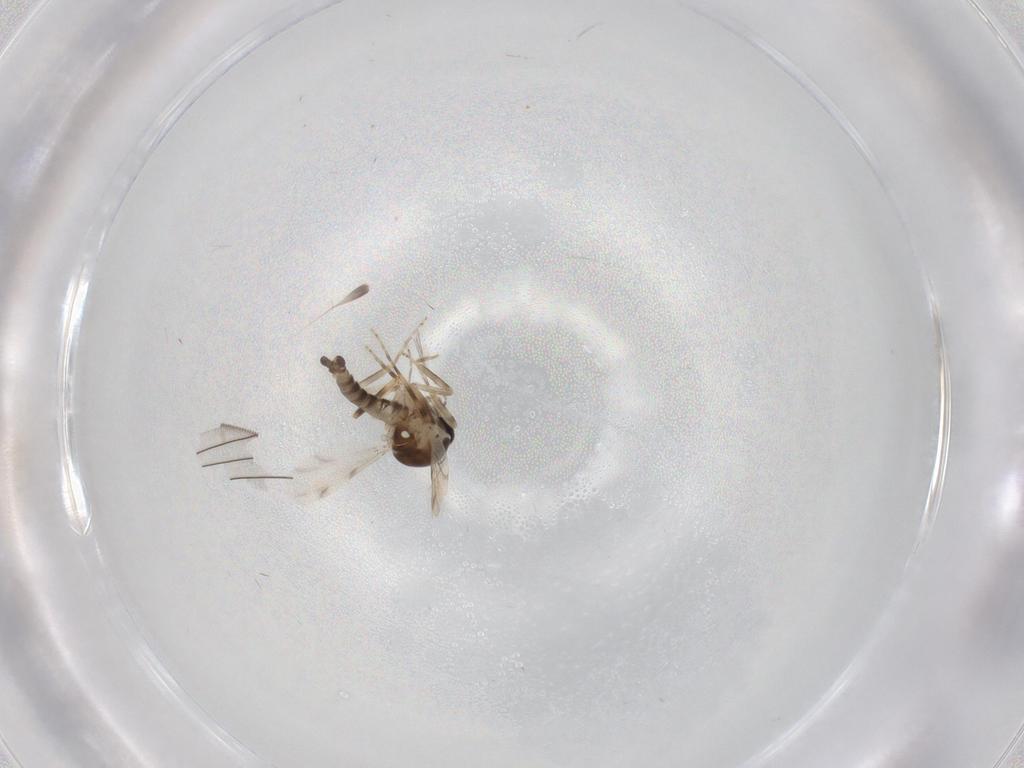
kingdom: Animalia
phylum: Arthropoda
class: Insecta
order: Diptera
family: Ceratopogonidae
